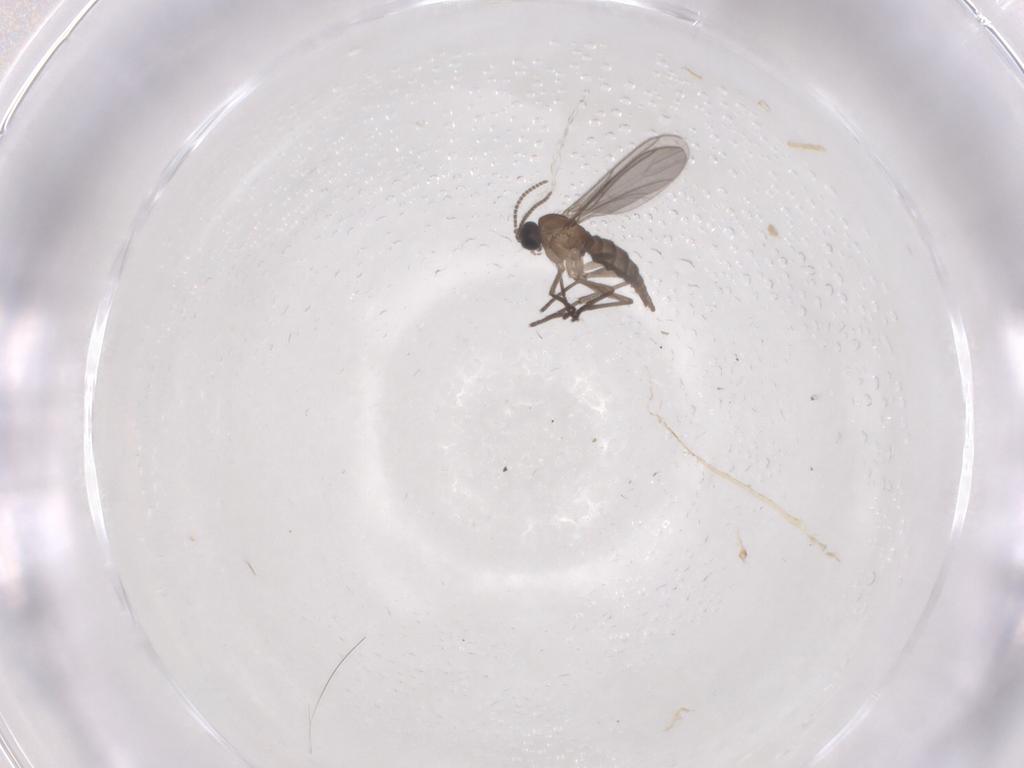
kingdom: Animalia
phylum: Arthropoda
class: Insecta
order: Diptera
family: Sciaridae
